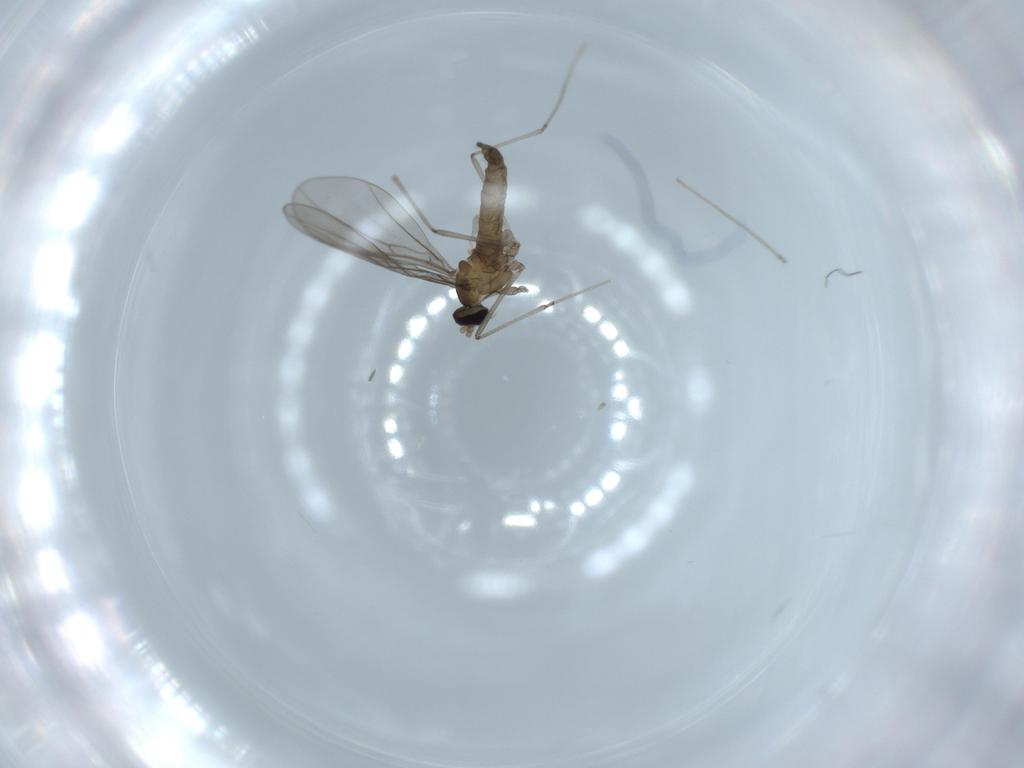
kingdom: Animalia
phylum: Arthropoda
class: Insecta
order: Diptera
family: Cecidomyiidae
